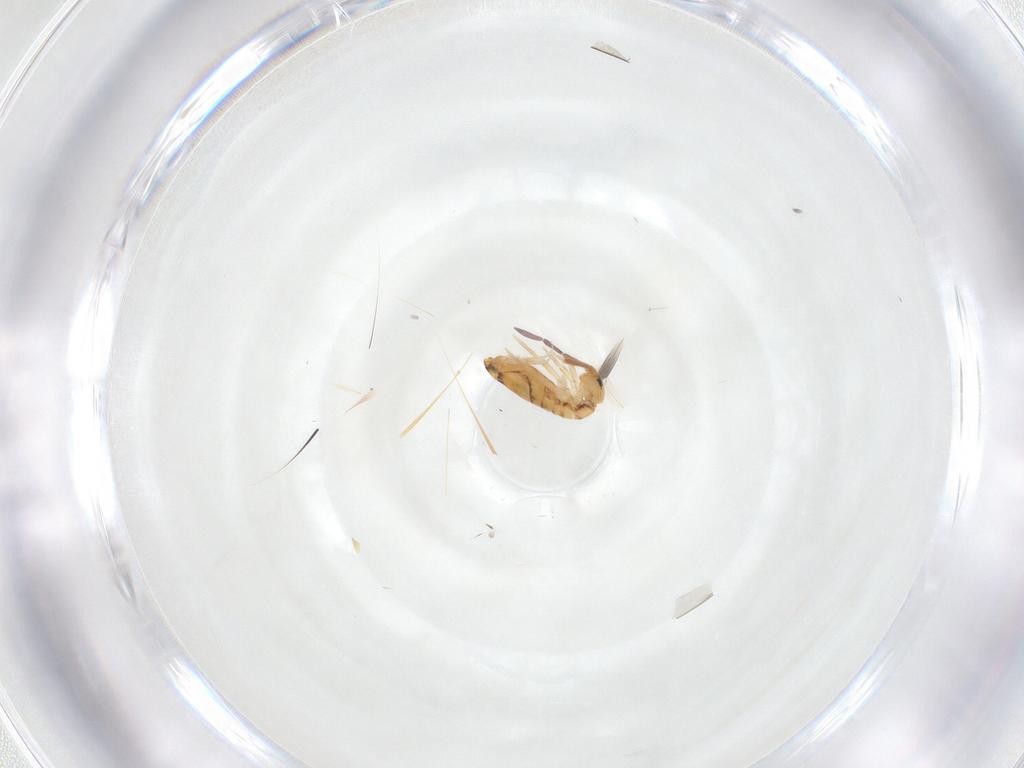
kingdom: Animalia
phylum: Arthropoda
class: Collembola
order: Entomobryomorpha
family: Entomobryidae
